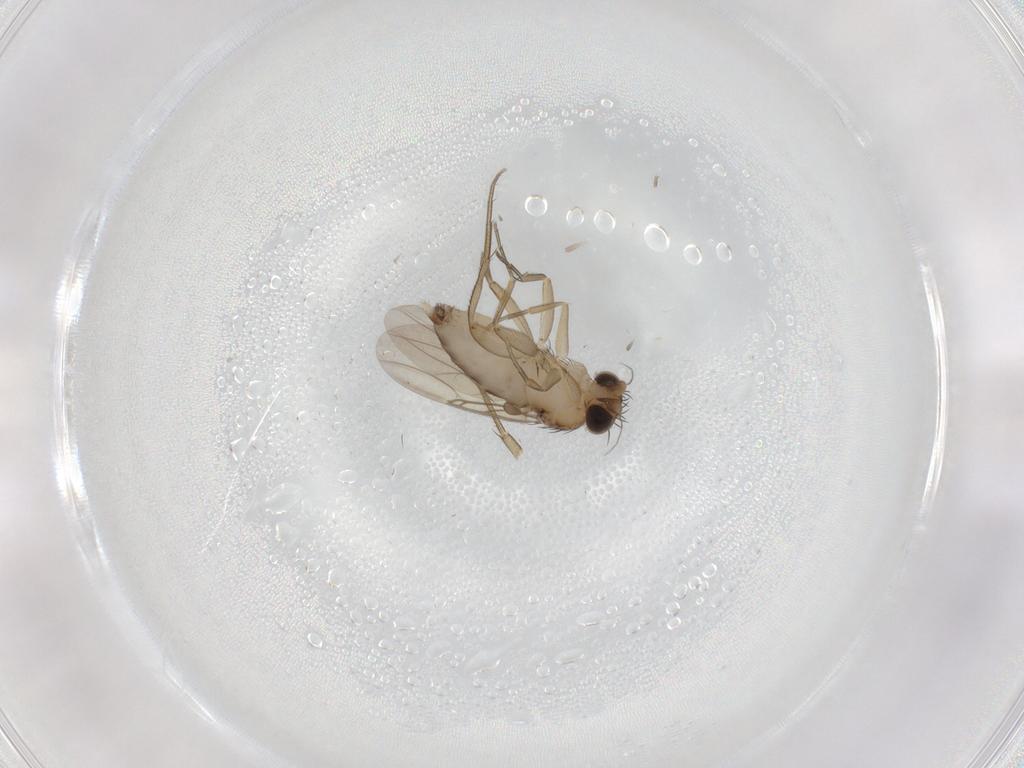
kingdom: Animalia
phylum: Arthropoda
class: Insecta
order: Diptera
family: Phoridae
